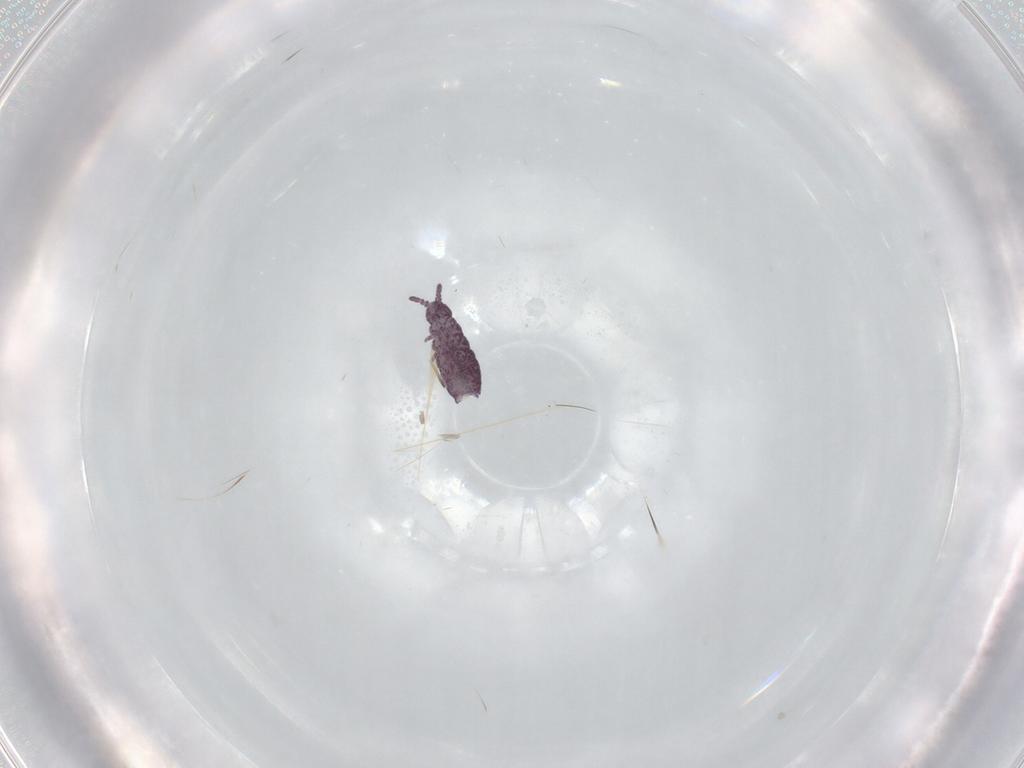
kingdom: Animalia
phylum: Arthropoda
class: Collembola
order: Poduromorpha
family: Brachystomellidae
